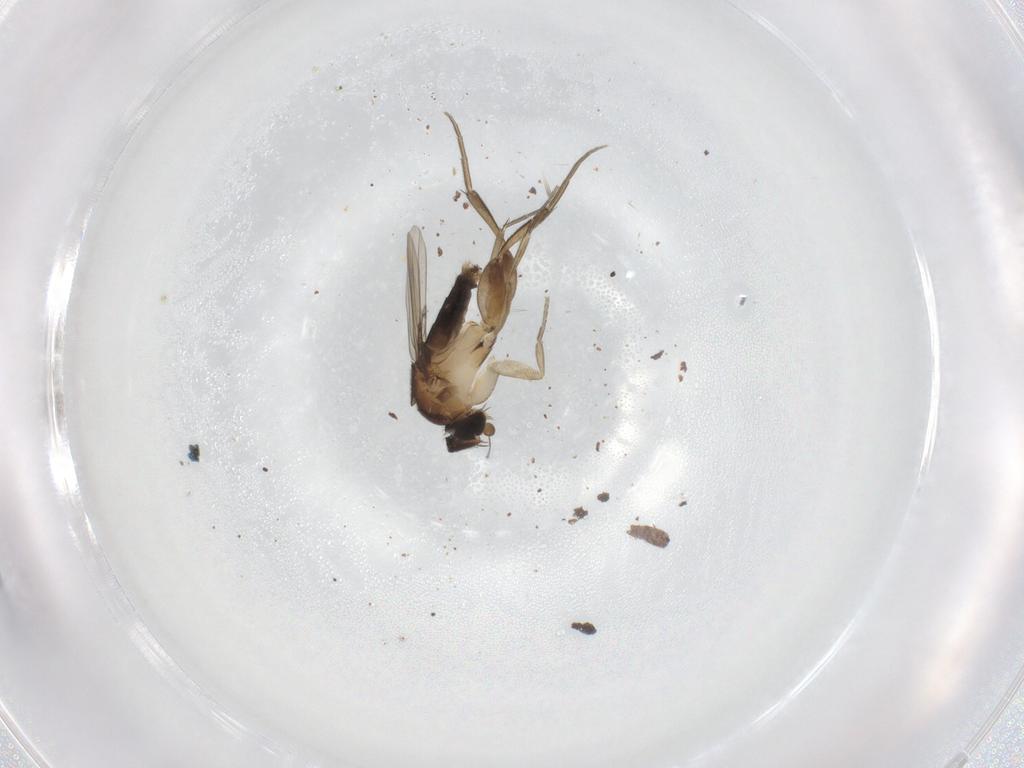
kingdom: Animalia
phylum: Arthropoda
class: Insecta
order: Diptera
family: Phoridae
